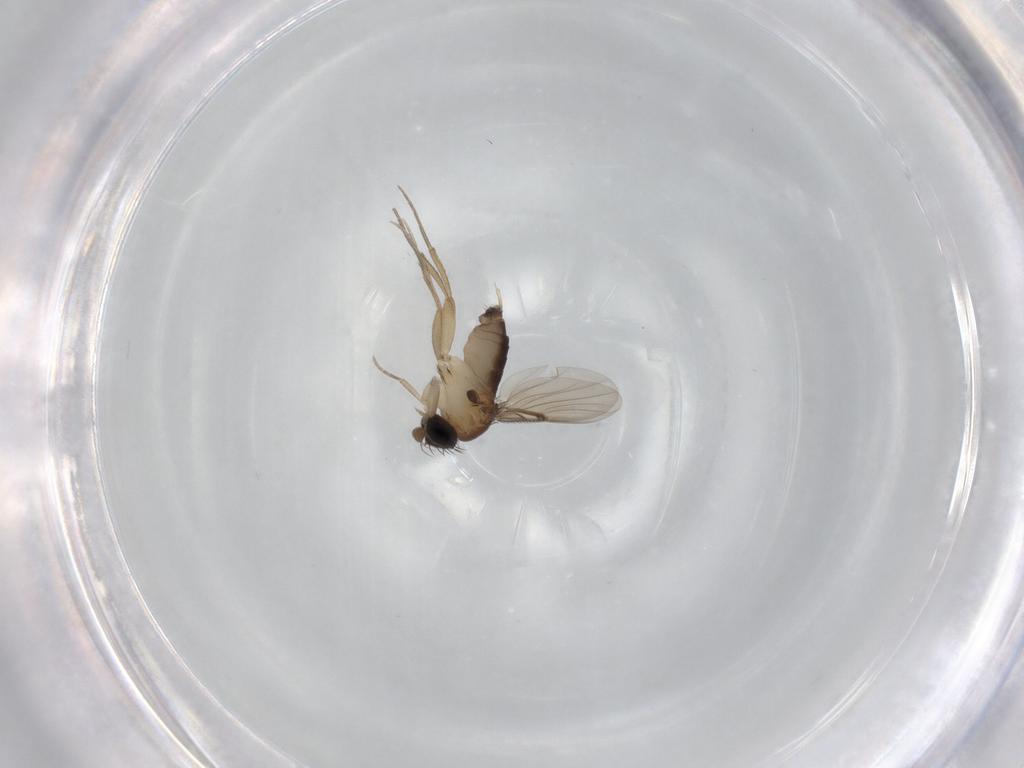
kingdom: Animalia
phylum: Arthropoda
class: Insecta
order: Diptera
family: Phoridae
